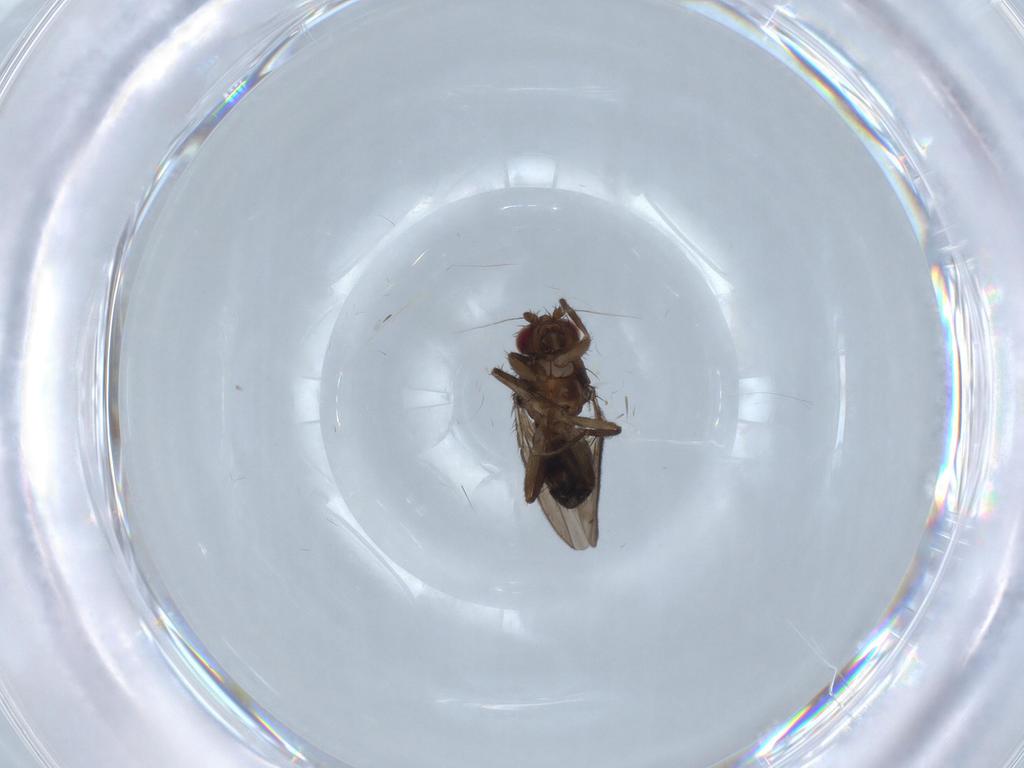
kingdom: Animalia
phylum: Arthropoda
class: Insecta
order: Diptera
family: Sphaeroceridae
